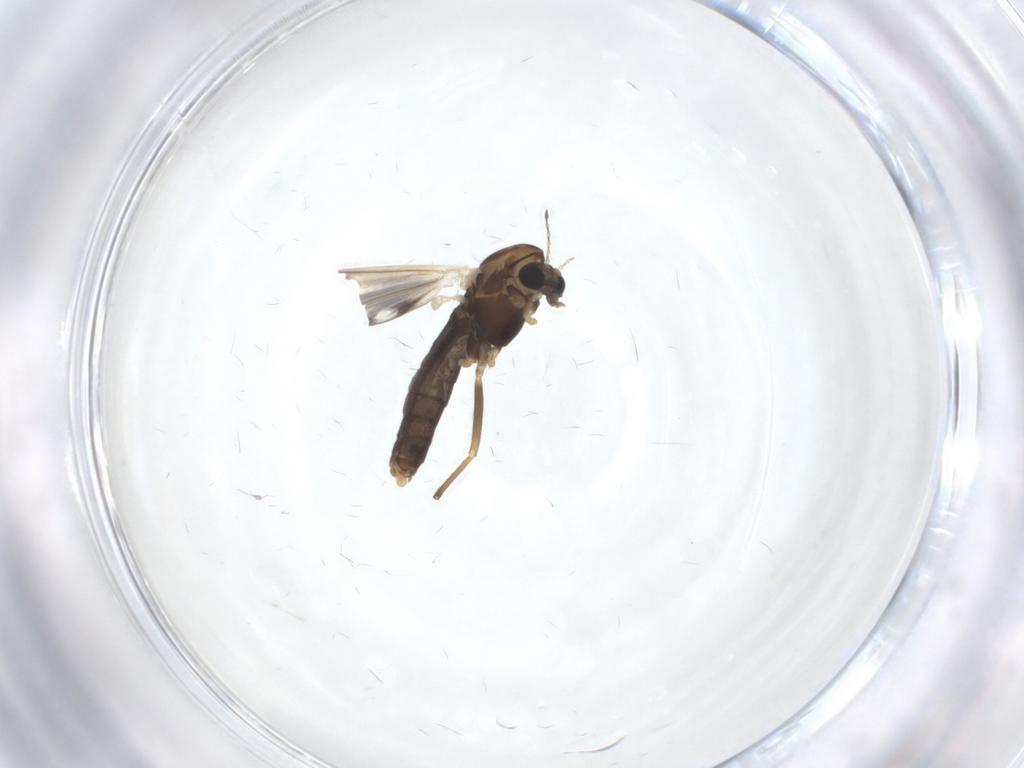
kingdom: Animalia
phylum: Arthropoda
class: Insecta
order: Diptera
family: Chironomidae
